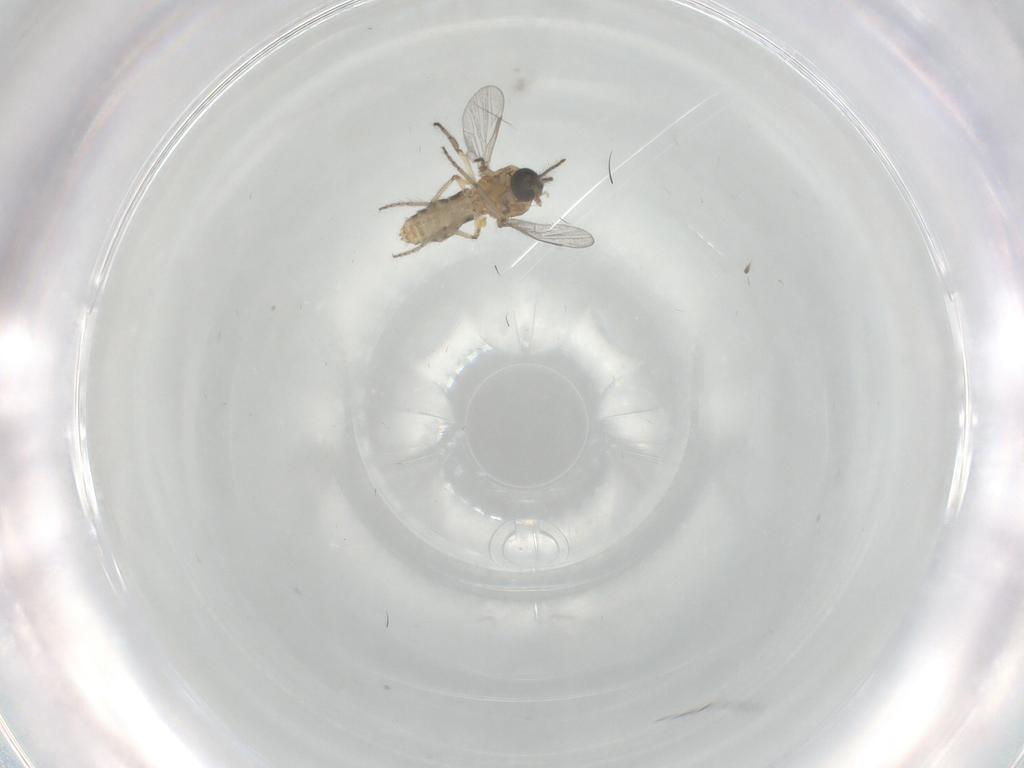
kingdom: Animalia
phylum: Arthropoda
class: Insecta
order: Diptera
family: Ceratopogonidae
